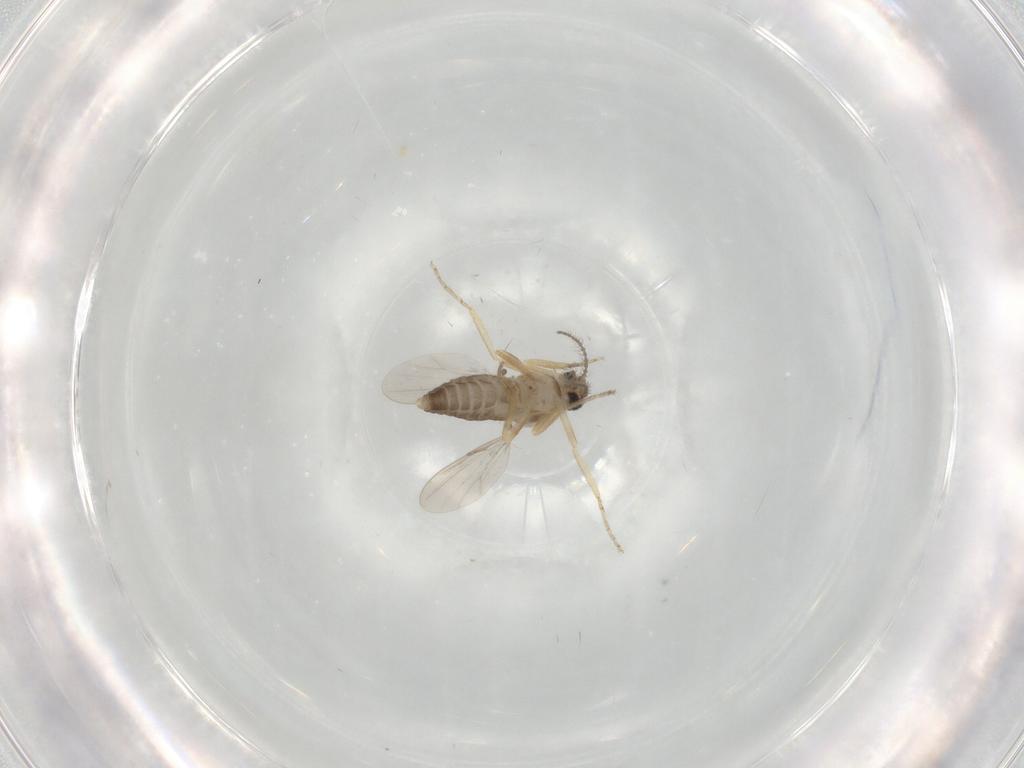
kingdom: Animalia
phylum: Arthropoda
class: Insecta
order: Diptera
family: Ceratopogonidae
